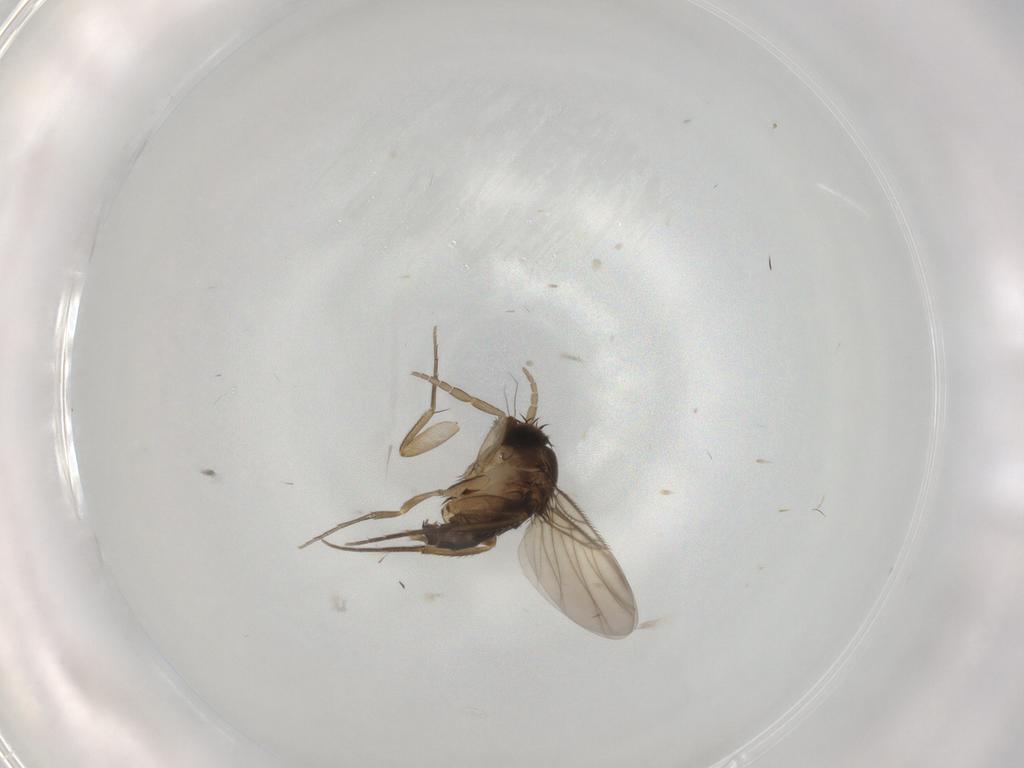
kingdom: Animalia
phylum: Arthropoda
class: Insecta
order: Diptera
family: Phoridae
